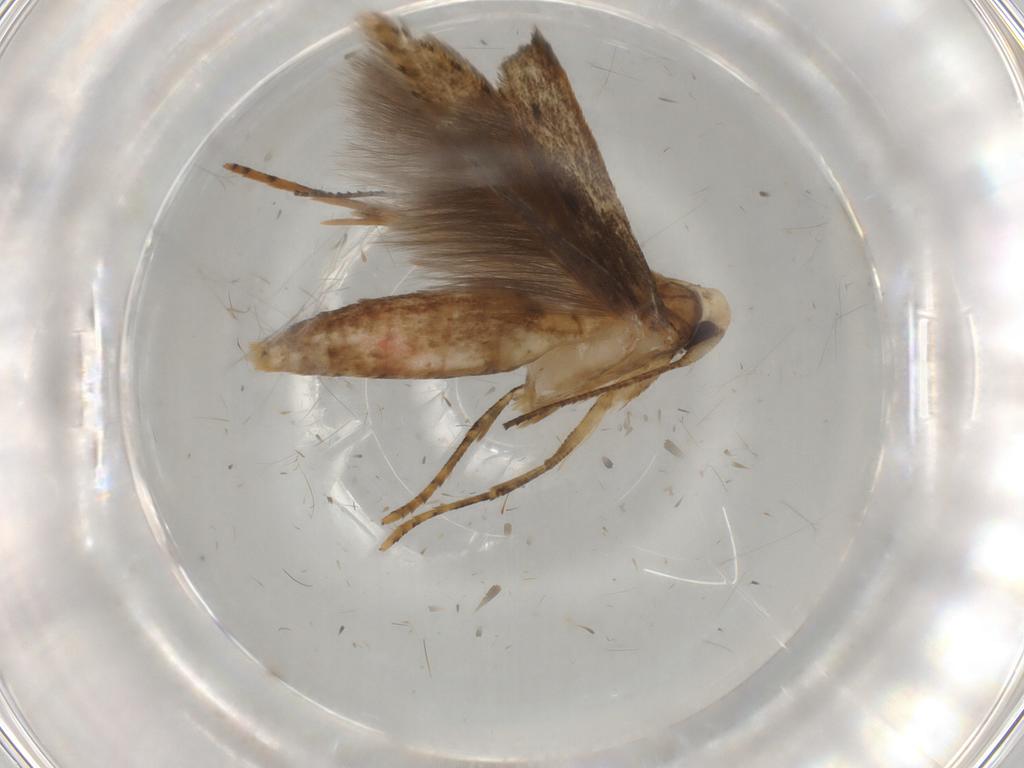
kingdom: Animalia
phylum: Arthropoda
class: Insecta
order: Lepidoptera
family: Gelechiidae
